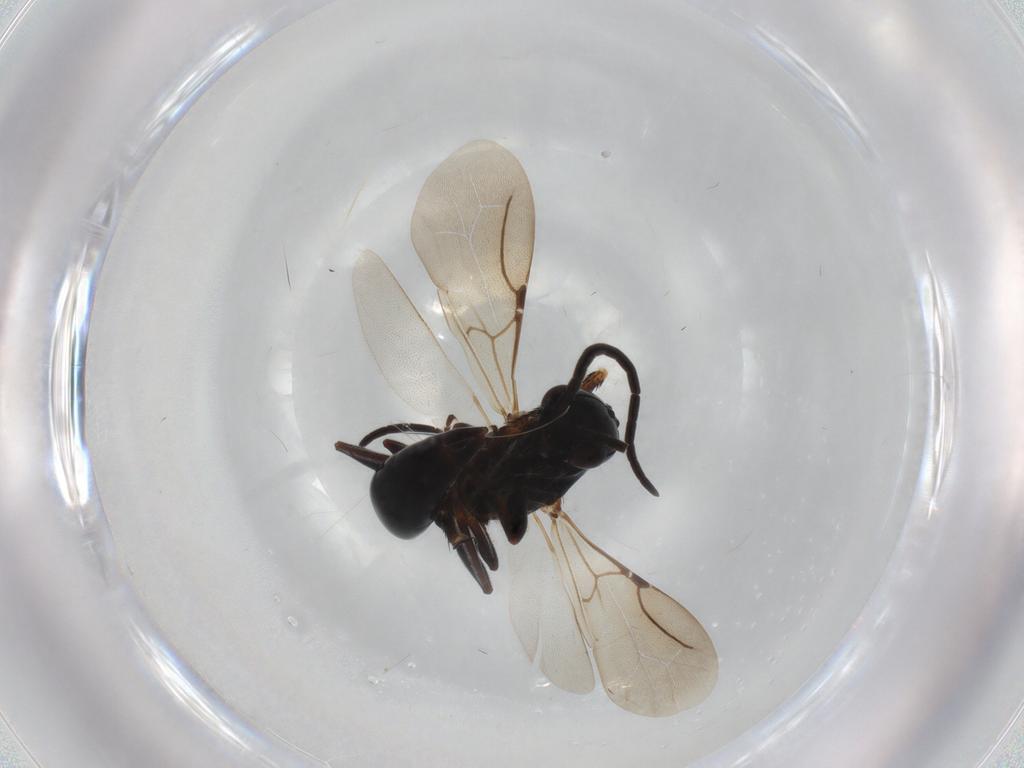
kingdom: Animalia
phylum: Arthropoda
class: Insecta
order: Hymenoptera
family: Bethylidae
